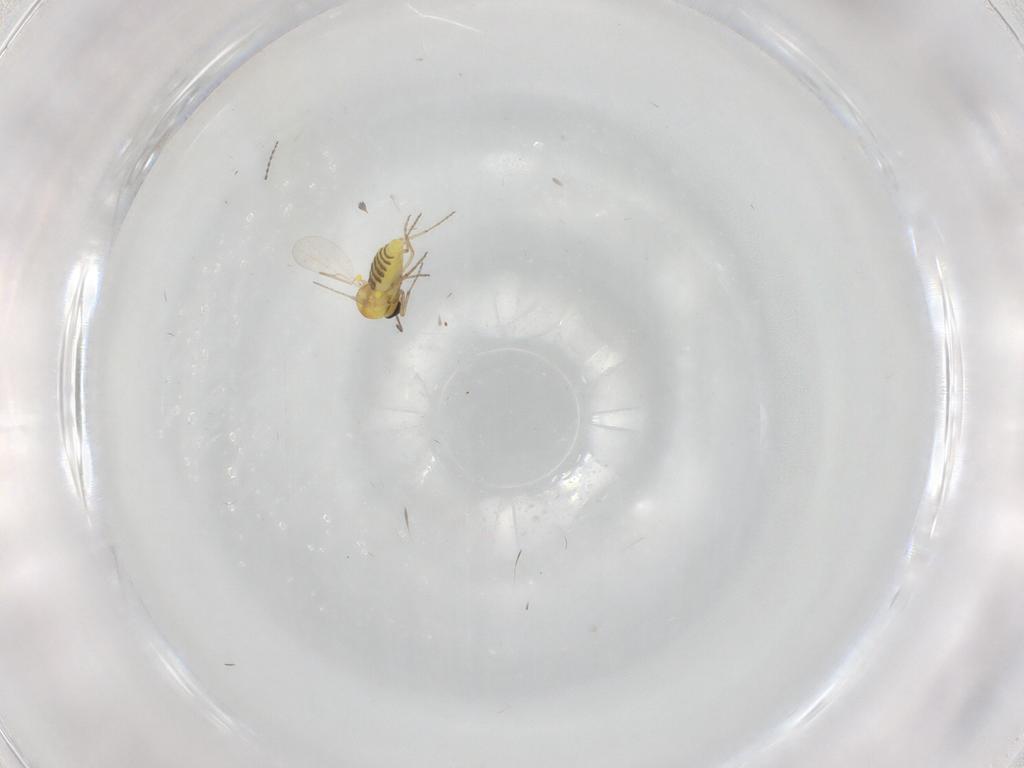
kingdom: Animalia
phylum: Arthropoda
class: Insecta
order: Diptera
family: Ceratopogonidae
